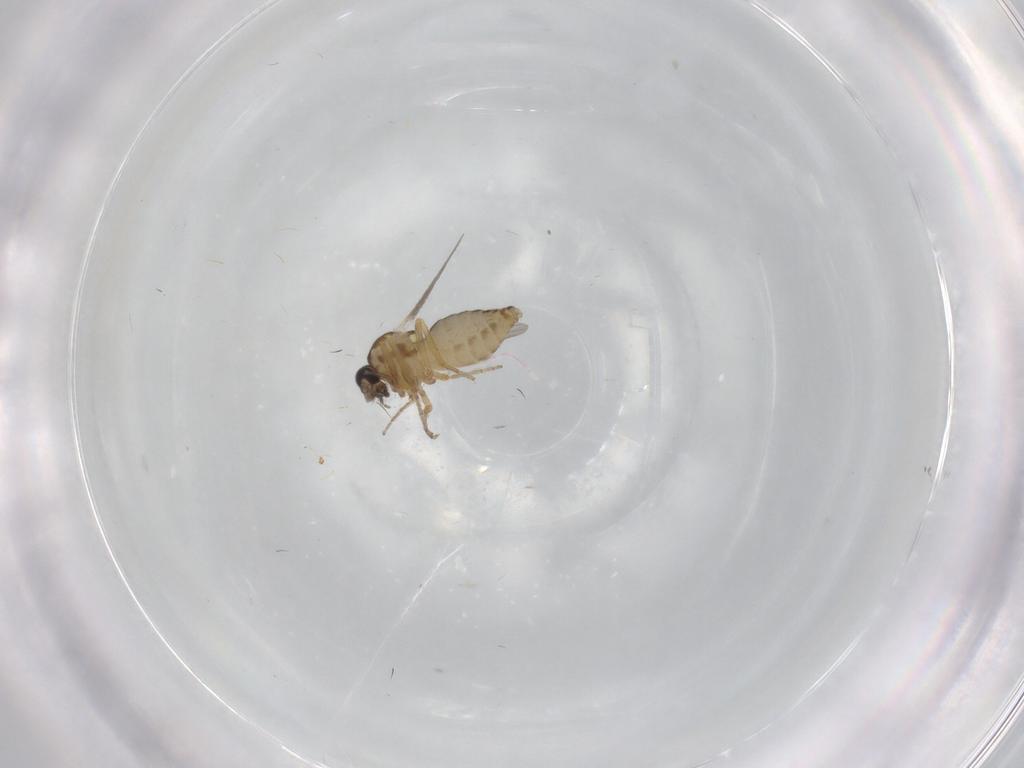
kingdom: Animalia
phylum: Arthropoda
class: Insecta
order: Diptera
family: Ceratopogonidae
